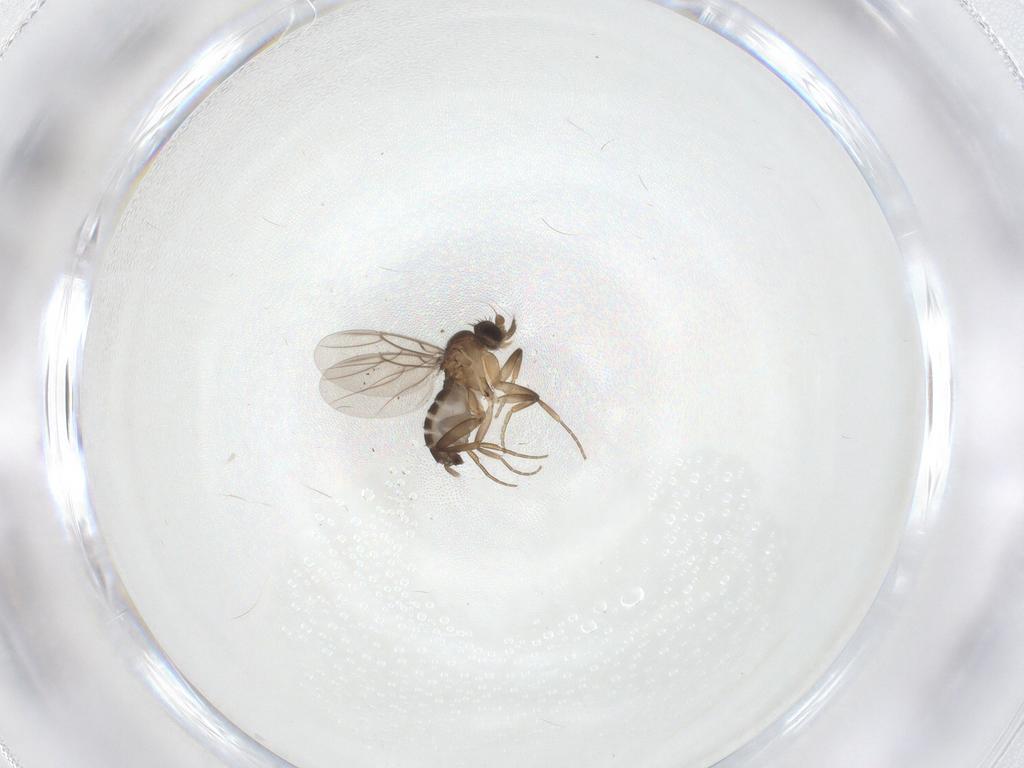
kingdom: Animalia
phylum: Arthropoda
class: Insecta
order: Diptera
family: Phoridae
